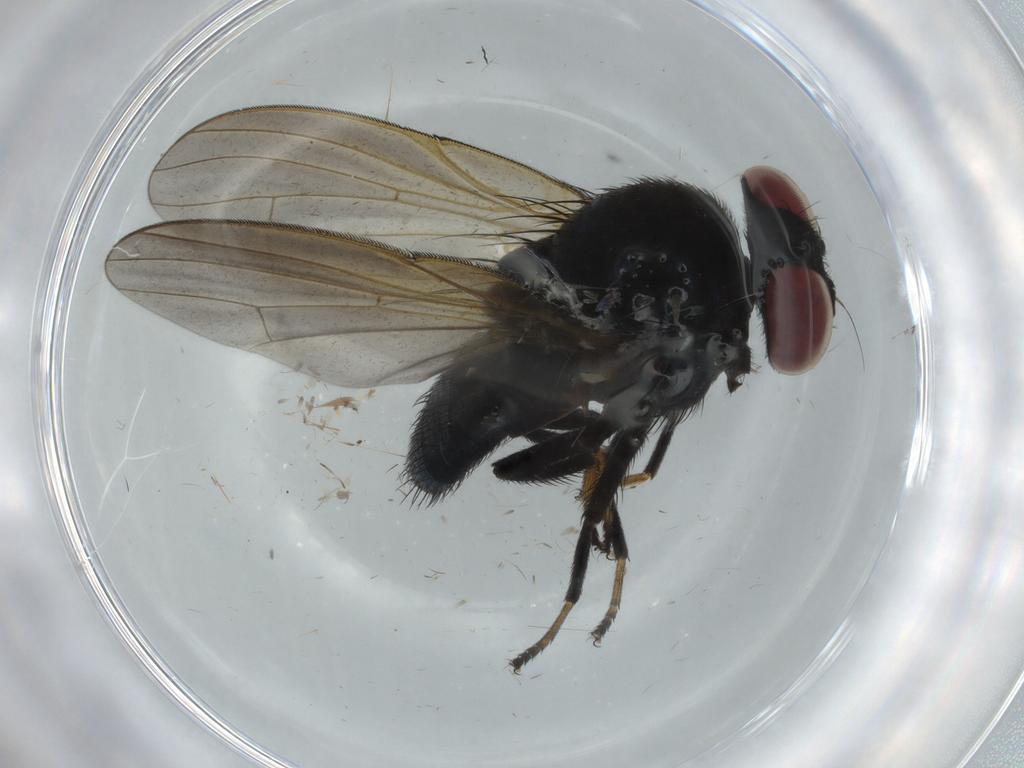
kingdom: Animalia
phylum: Arthropoda
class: Insecta
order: Diptera
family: Lonchaeidae
